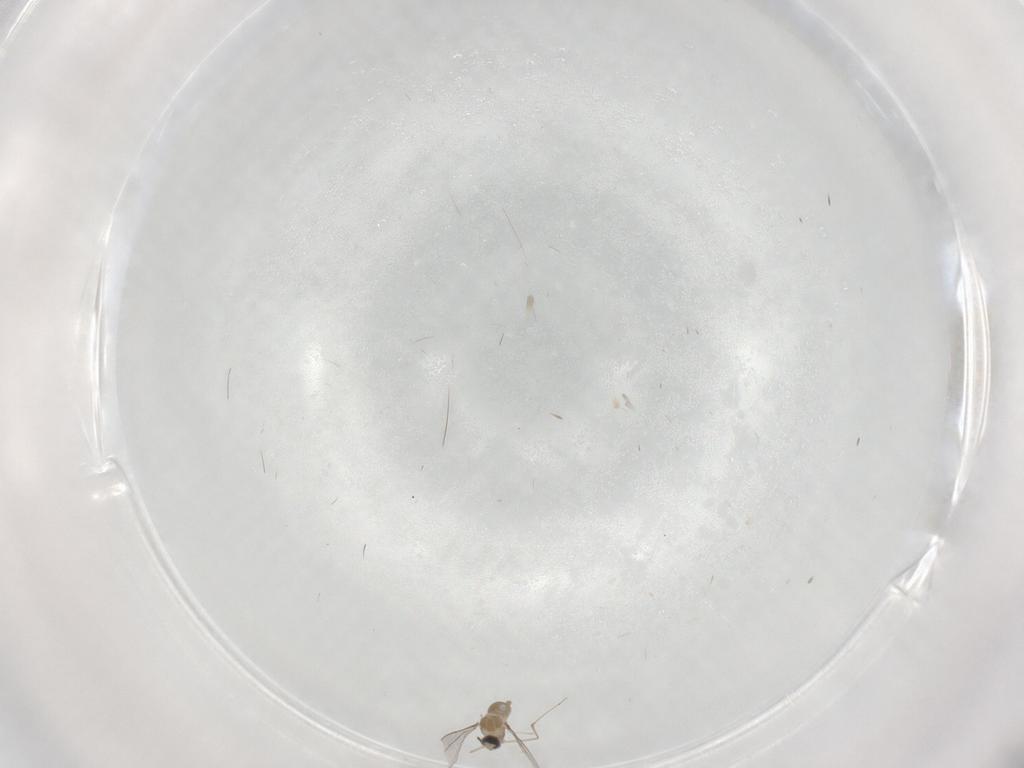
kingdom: Animalia
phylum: Arthropoda
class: Insecta
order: Diptera
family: Cecidomyiidae
